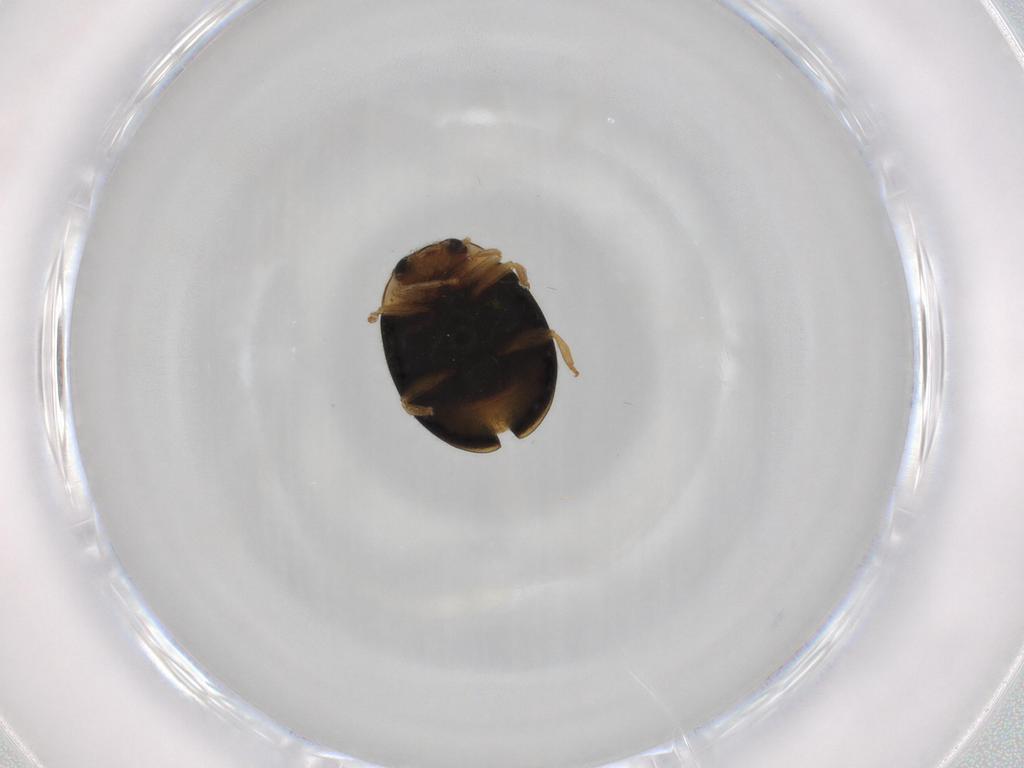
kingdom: Animalia
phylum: Arthropoda
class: Insecta
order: Coleoptera
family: Coccinellidae
